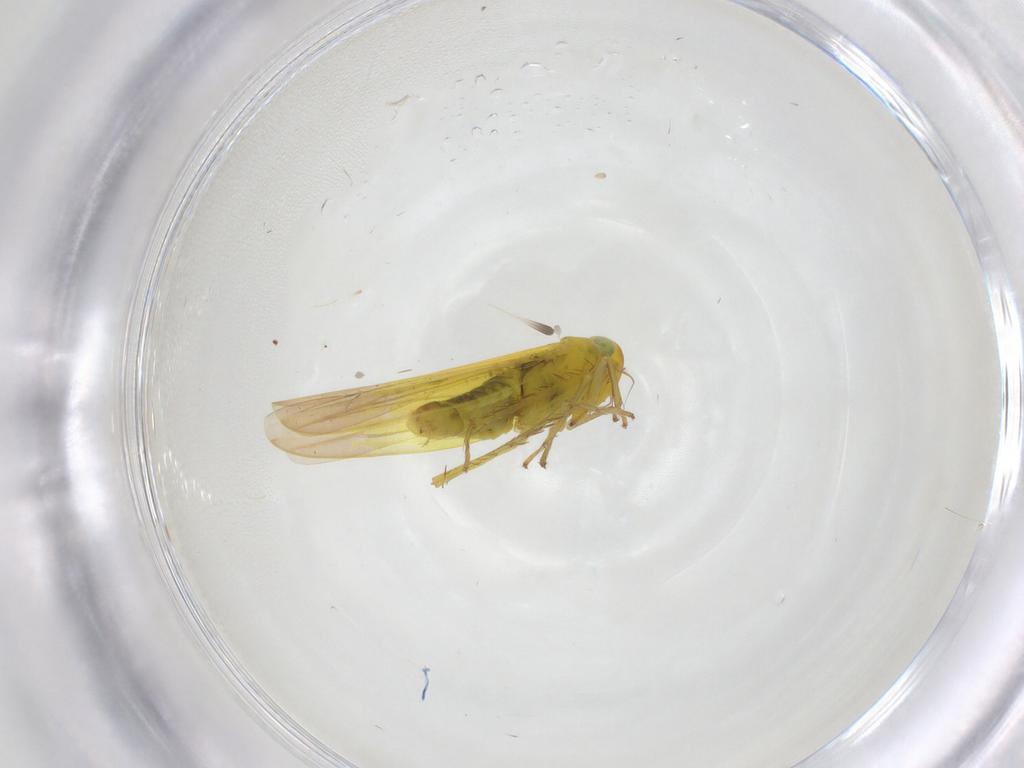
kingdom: Animalia
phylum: Arthropoda
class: Insecta
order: Hemiptera
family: Cicadellidae
